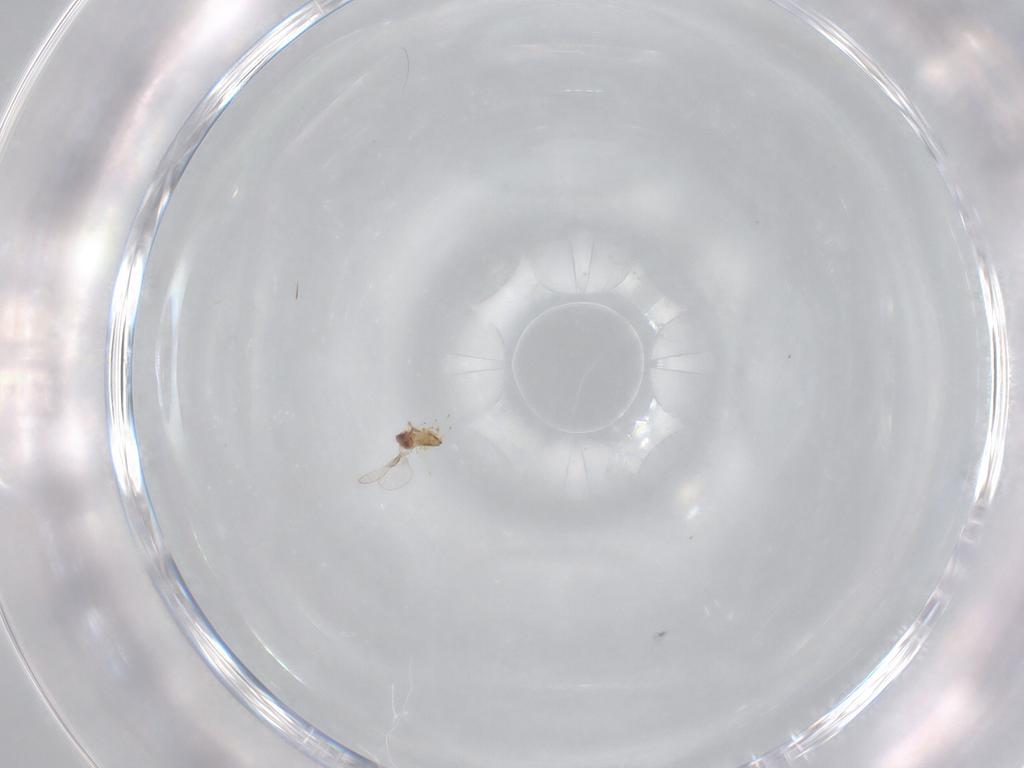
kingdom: Animalia
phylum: Arthropoda
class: Insecta
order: Hymenoptera
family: Trichogrammatidae
